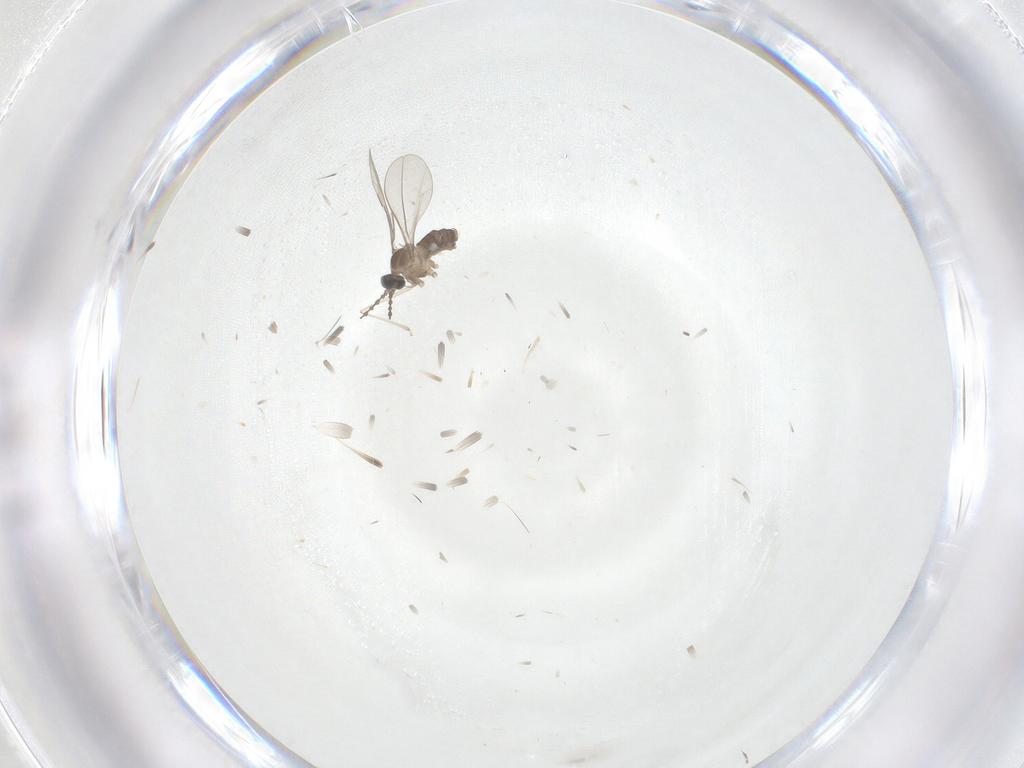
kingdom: Animalia
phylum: Arthropoda
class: Insecta
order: Diptera
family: Cecidomyiidae
